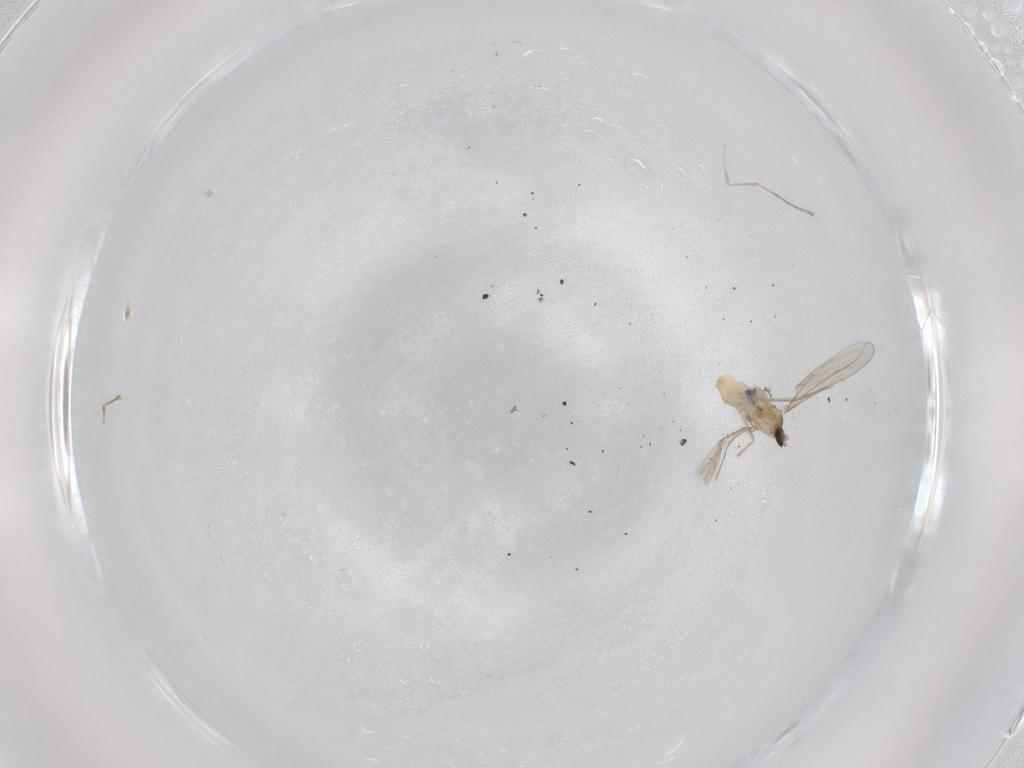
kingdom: Animalia
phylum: Arthropoda
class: Insecta
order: Diptera
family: Cecidomyiidae
